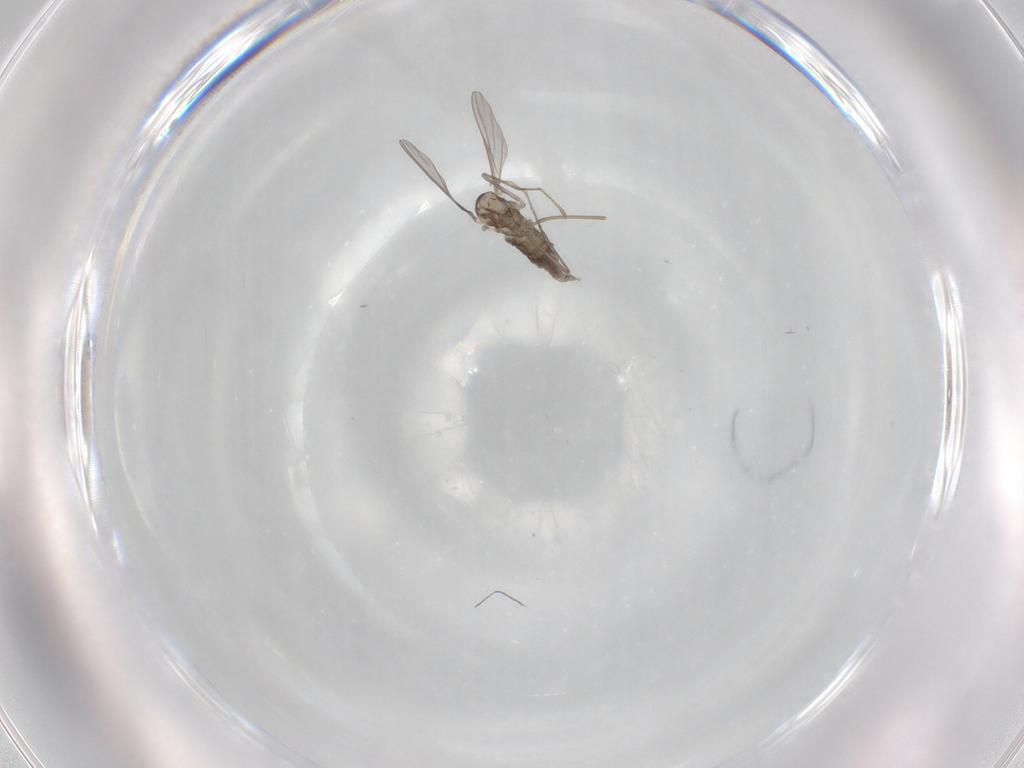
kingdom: Animalia
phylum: Arthropoda
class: Insecta
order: Diptera
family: Cecidomyiidae
